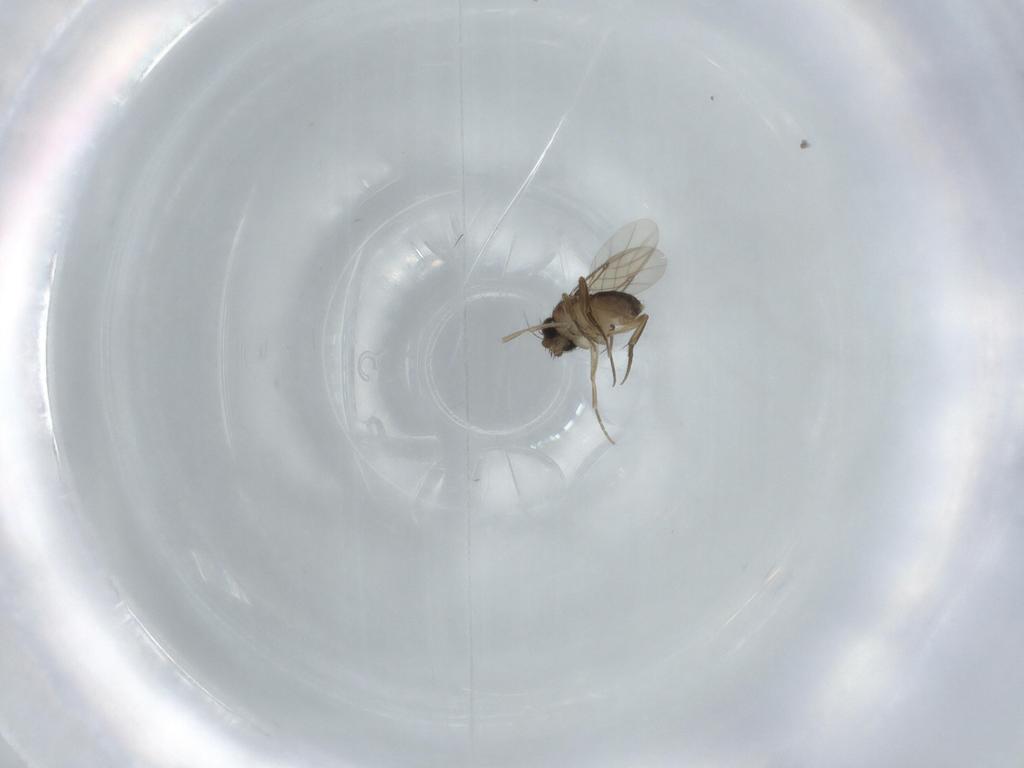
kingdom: Animalia
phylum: Arthropoda
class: Insecta
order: Diptera
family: Phoridae
